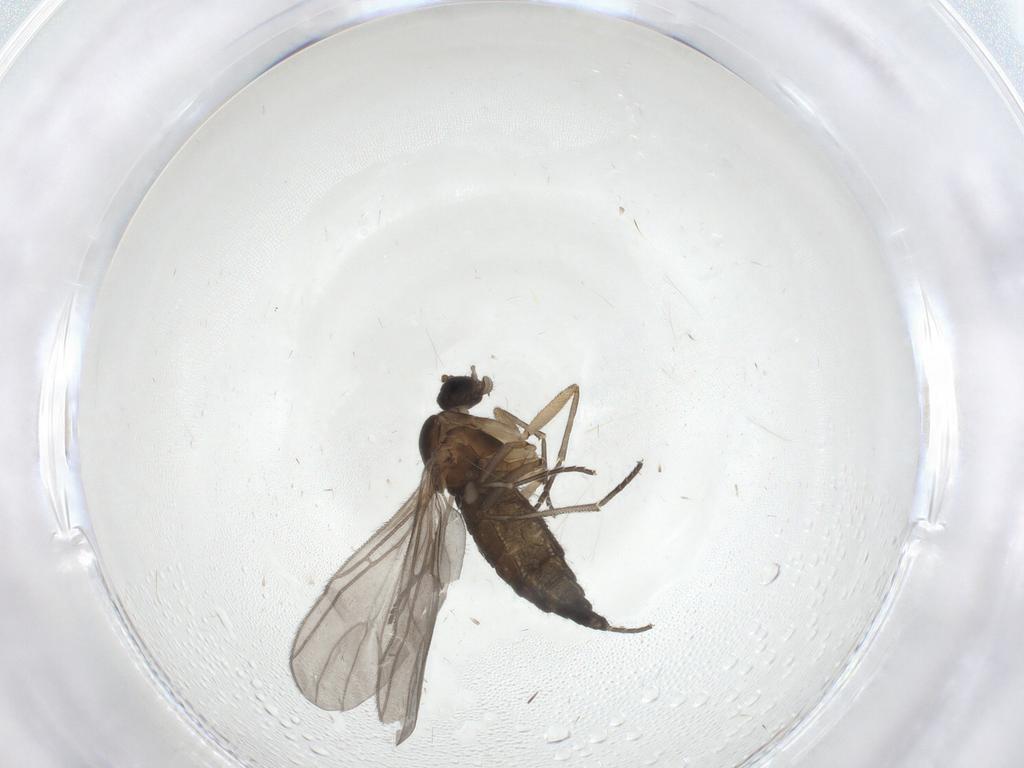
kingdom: Animalia
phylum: Arthropoda
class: Insecta
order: Diptera
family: Sciaridae
